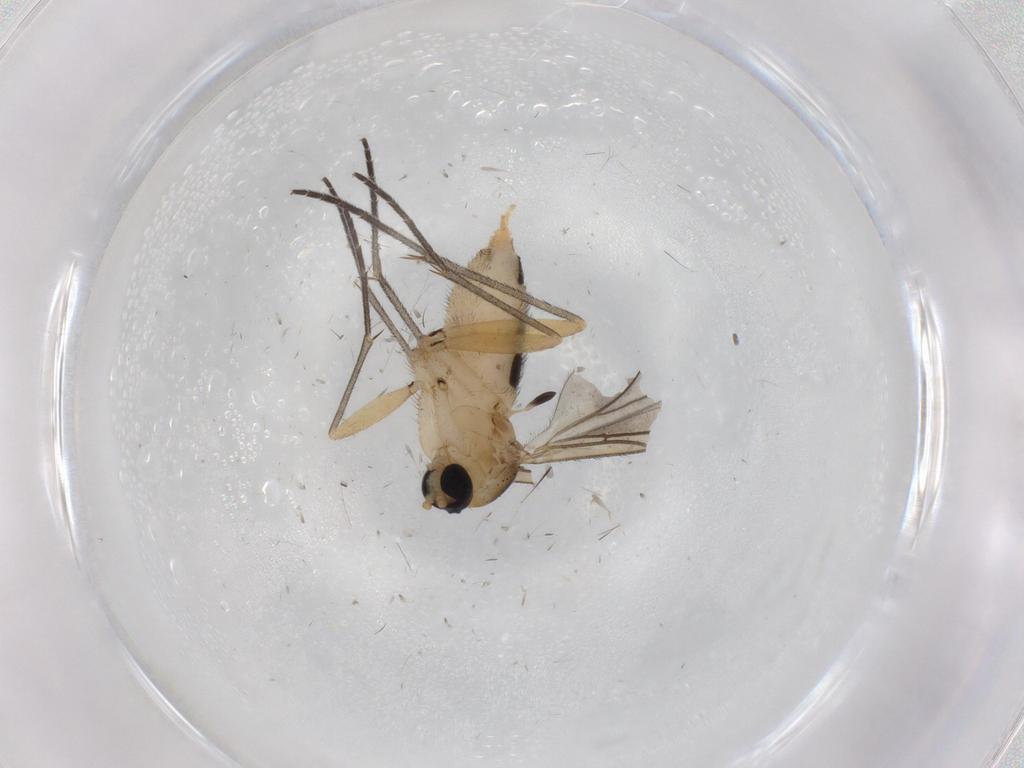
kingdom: Animalia
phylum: Arthropoda
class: Insecta
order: Diptera
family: Sciaridae
